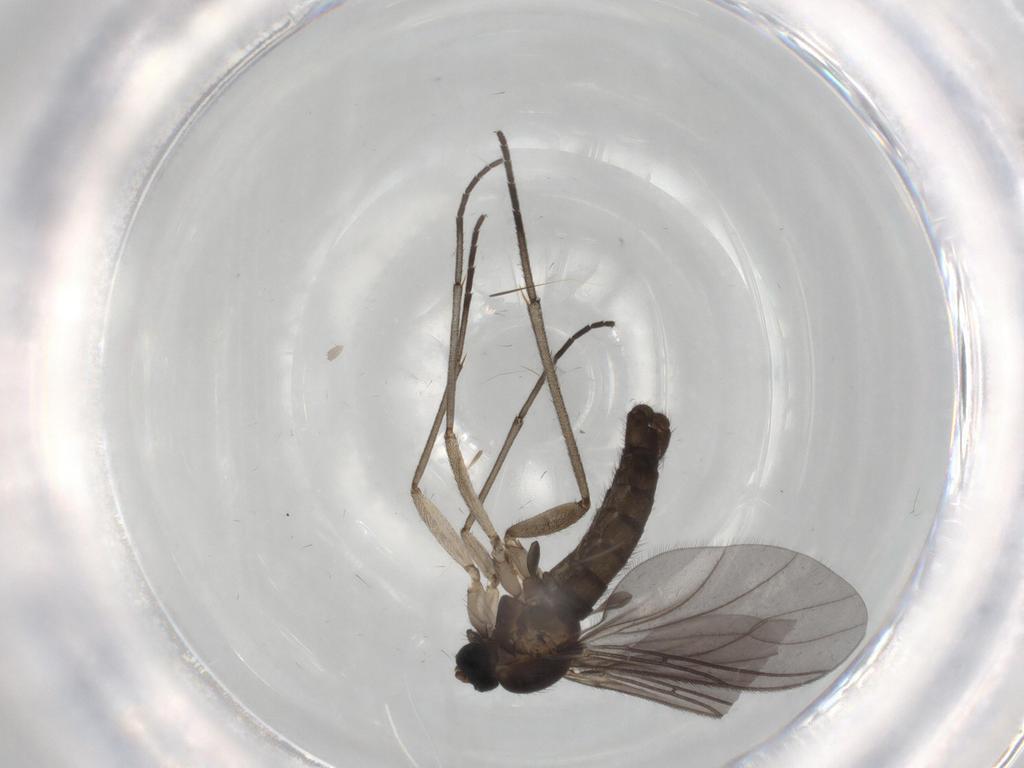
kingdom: Animalia
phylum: Arthropoda
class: Insecta
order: Diptera
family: Sciaridae
